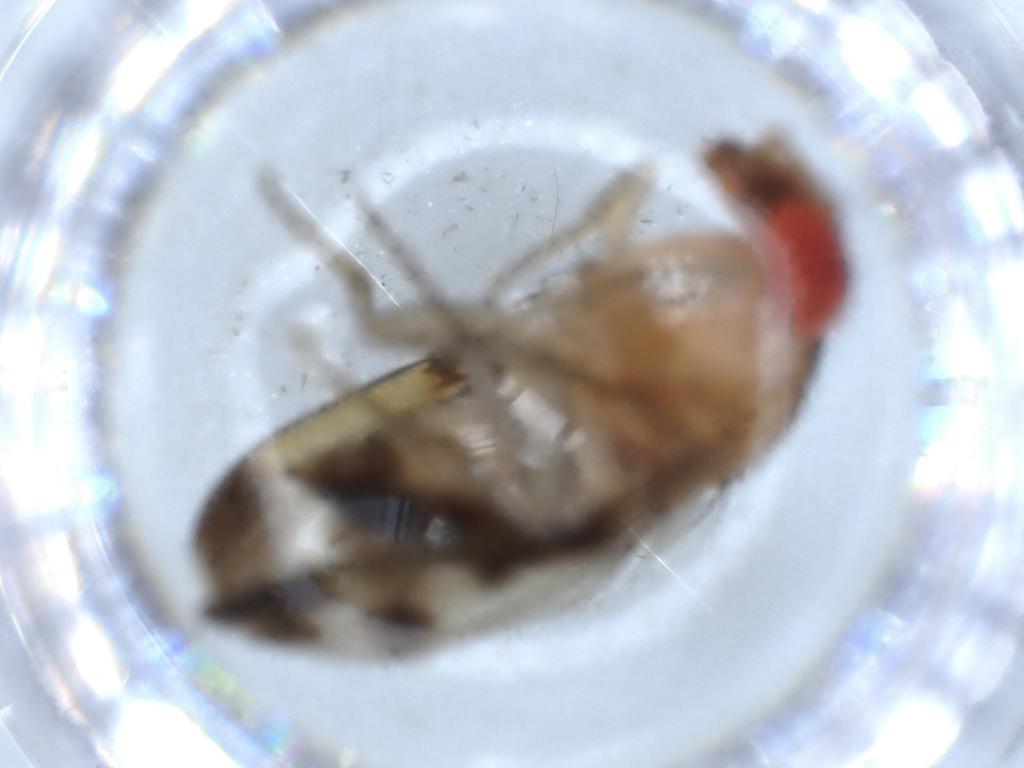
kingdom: Animalia
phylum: Arthropoda
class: Insecta
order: Diptera
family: Drosophilidae
